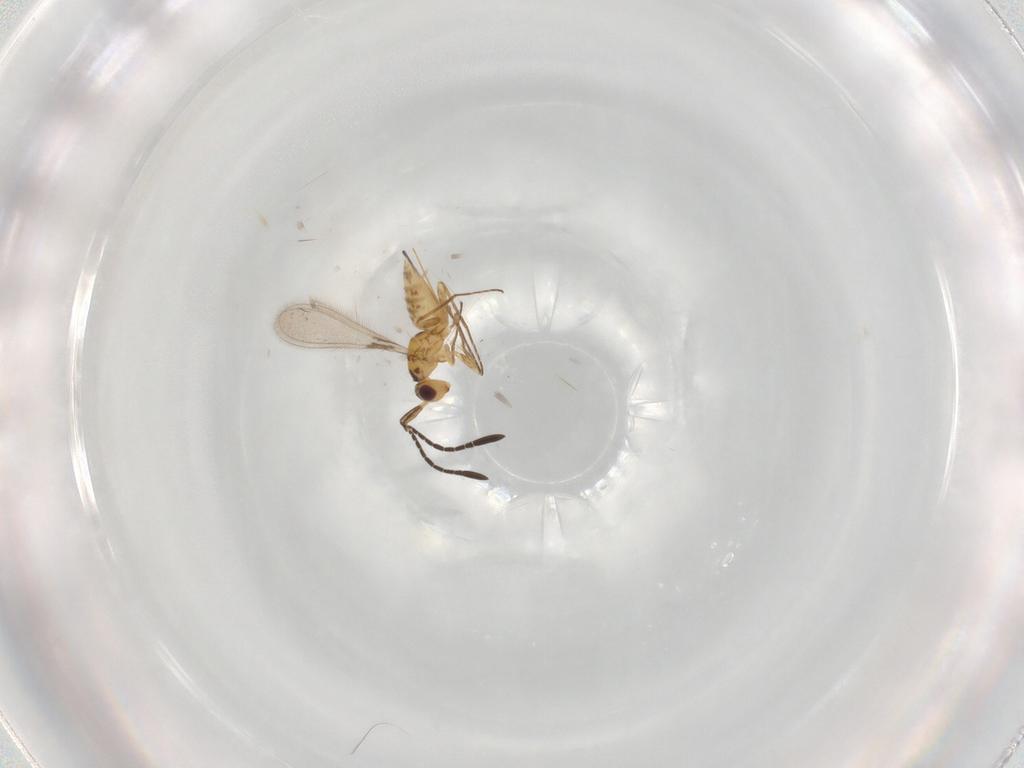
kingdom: Animalia
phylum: Arthropoda
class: Insecta
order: Hymenoptera
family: Mymaridae
